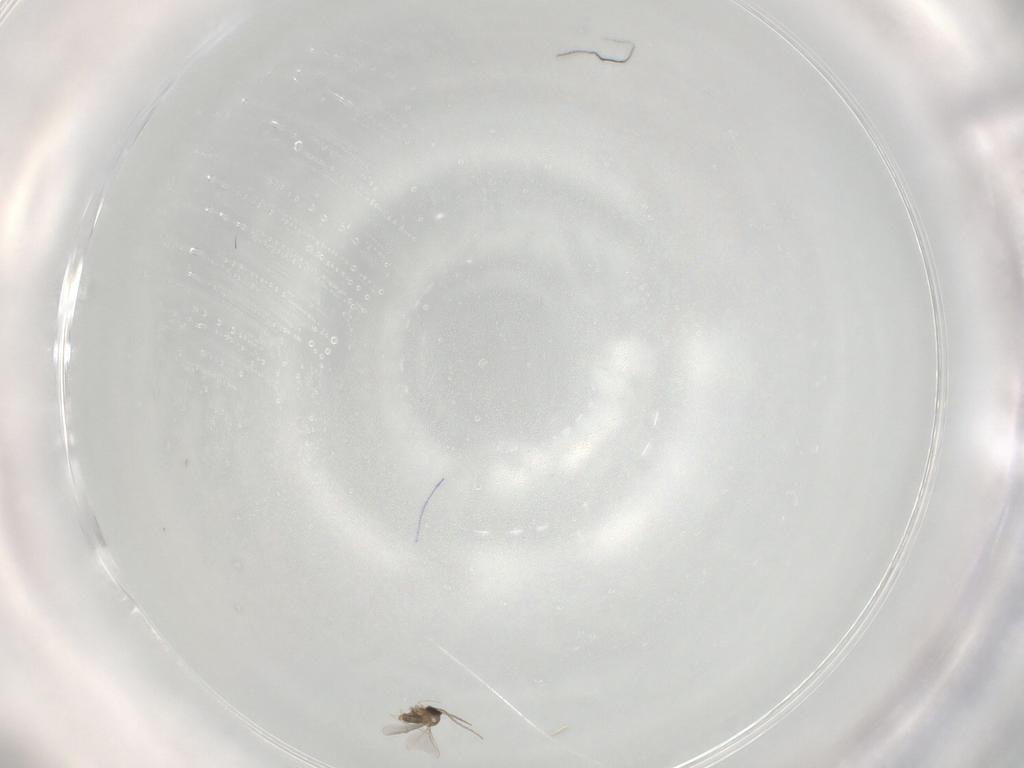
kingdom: Animalia
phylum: Arthropoda
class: Insecta
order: Diptera
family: Cecidomyiidae
